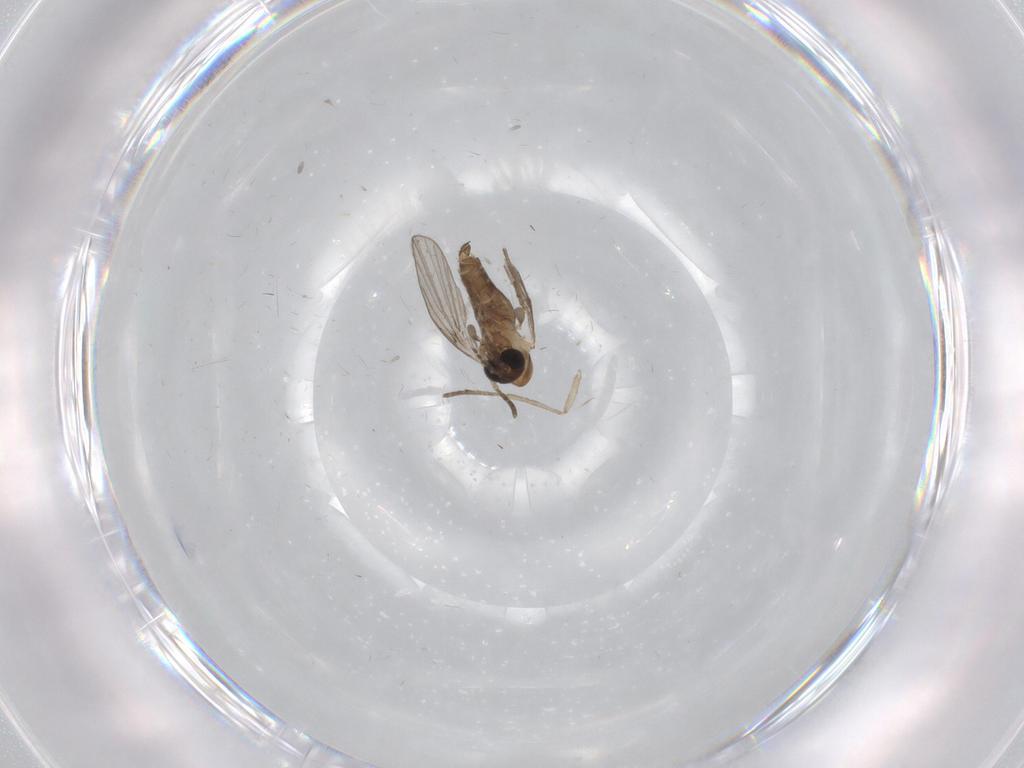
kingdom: Animalia
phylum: Arthropoda
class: Insecta
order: Diptera
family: Psychodidae
